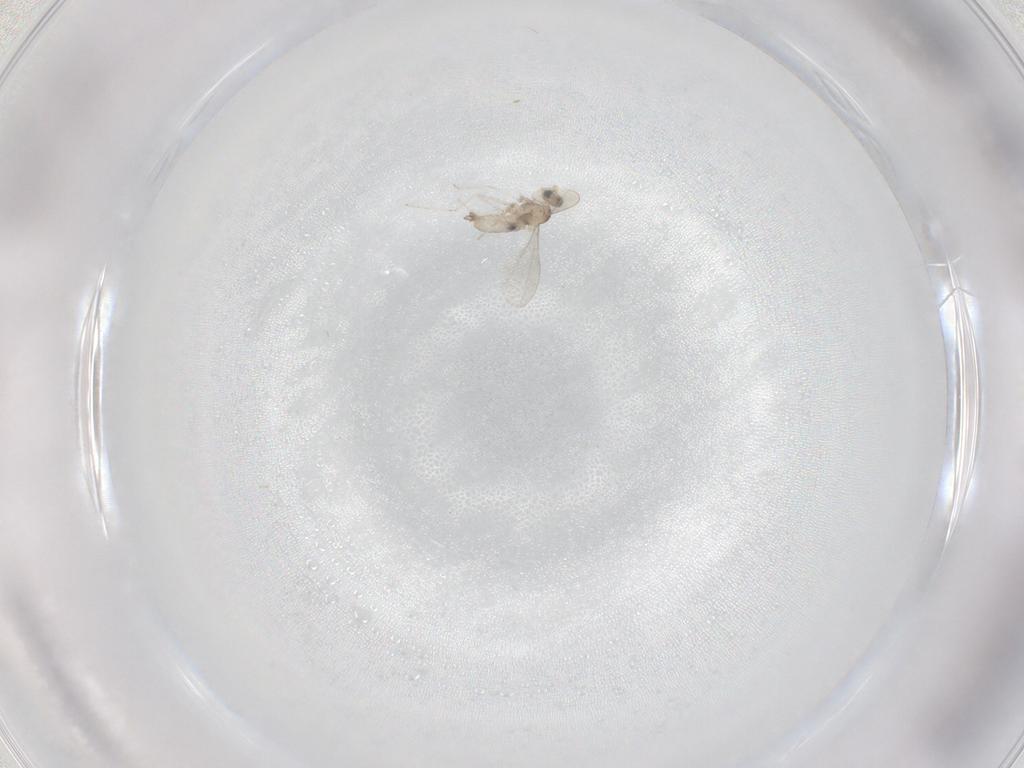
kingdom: Animalia
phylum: Arthropoda
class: Insecta
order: Diptera
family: Cecidomyiidae
